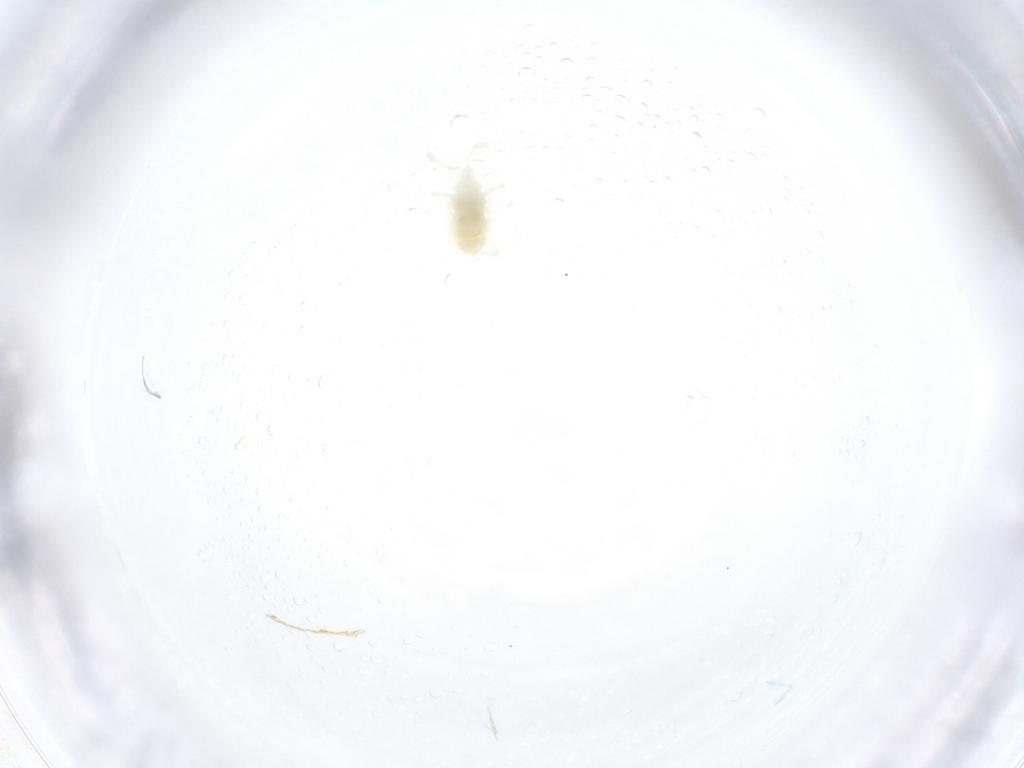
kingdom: Animalia
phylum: Arthropoda
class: Arachnida
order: Trombidiformes
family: Rhagidiidae
